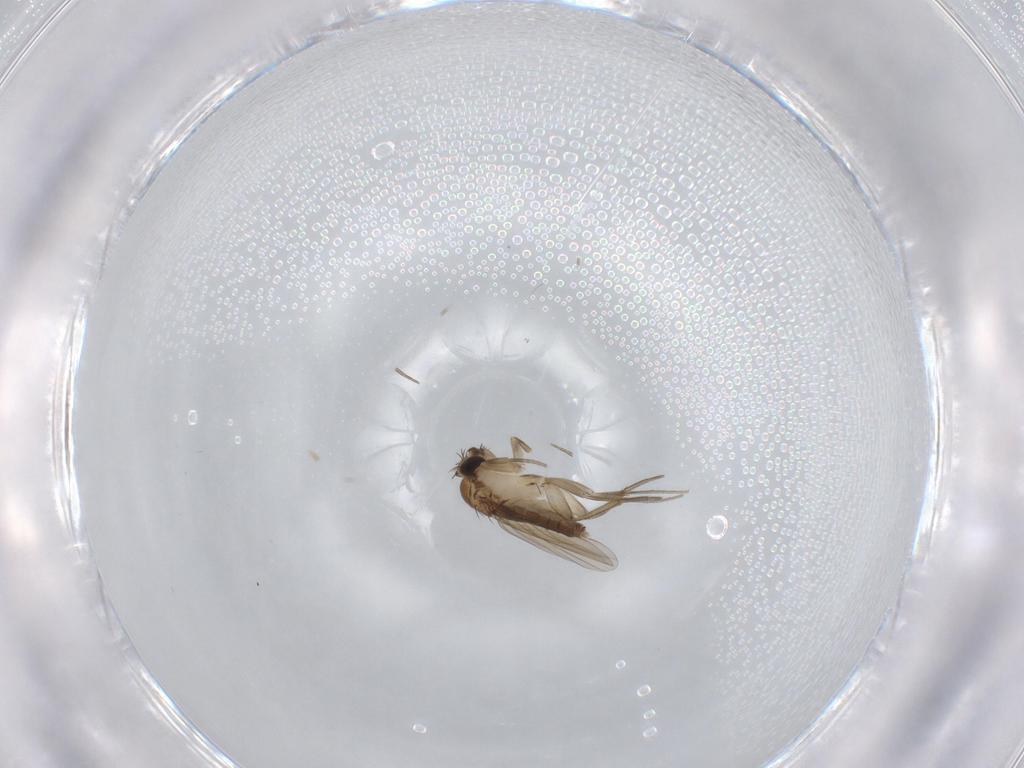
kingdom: Animalia
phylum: Arthropoda
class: Insecta
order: Diptera
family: Phoridae
